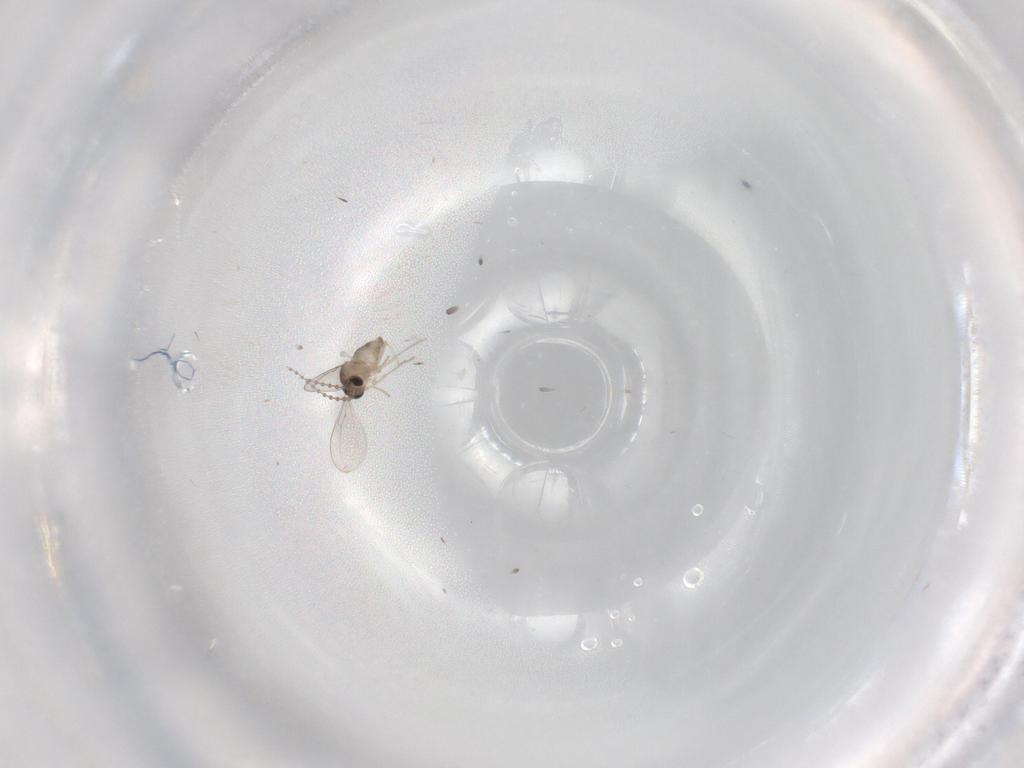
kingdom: Animalia
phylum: Arthropoda
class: Insecta
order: Diptera
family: Cecidomyiidae
